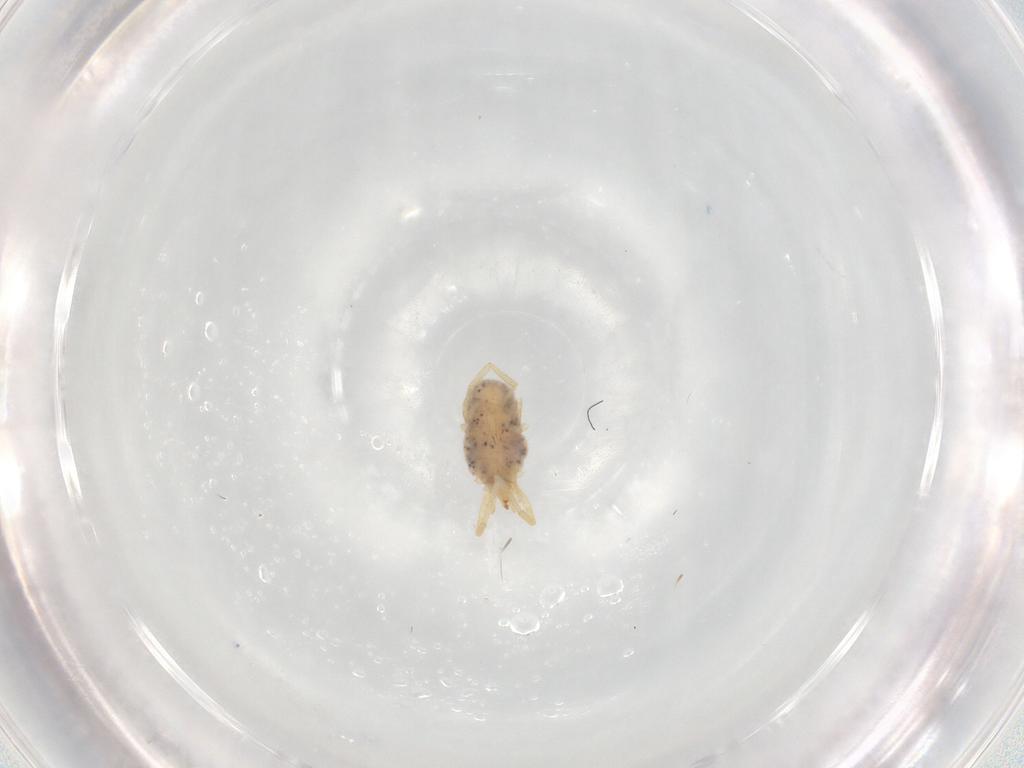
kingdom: Animalia
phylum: Arthropoda
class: Arachnida
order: Trombidiformes
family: Erythraeidae
